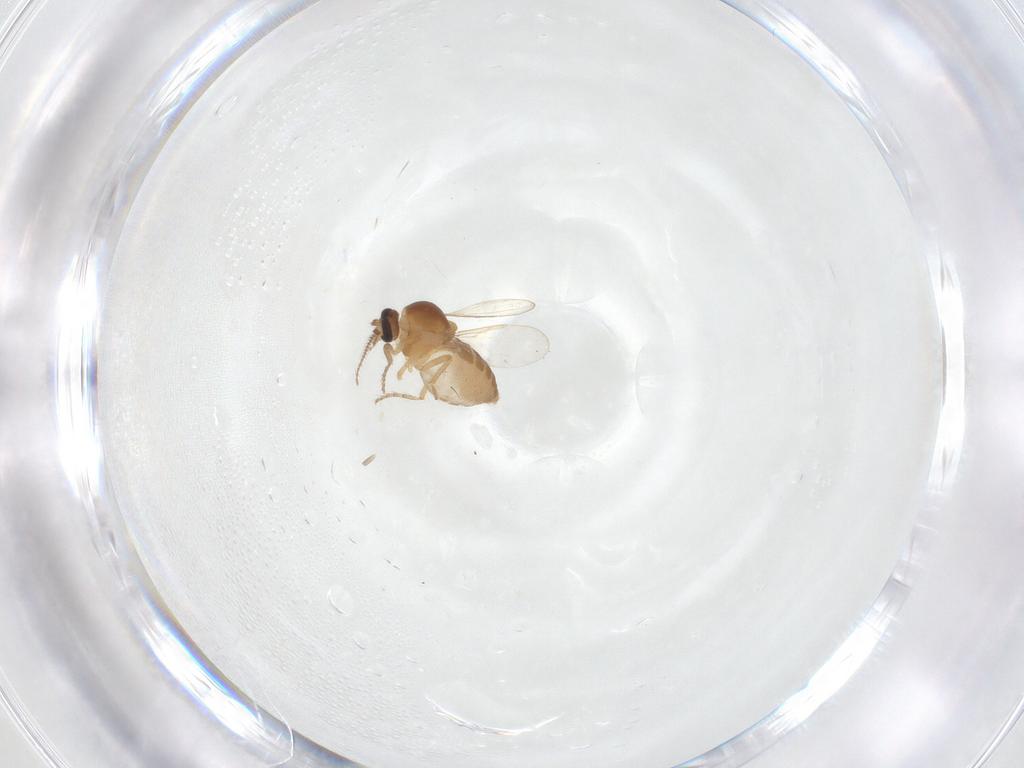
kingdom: Animalia
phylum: Arthropoda
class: Insecta
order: Diptera
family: Ceratopogonidae
